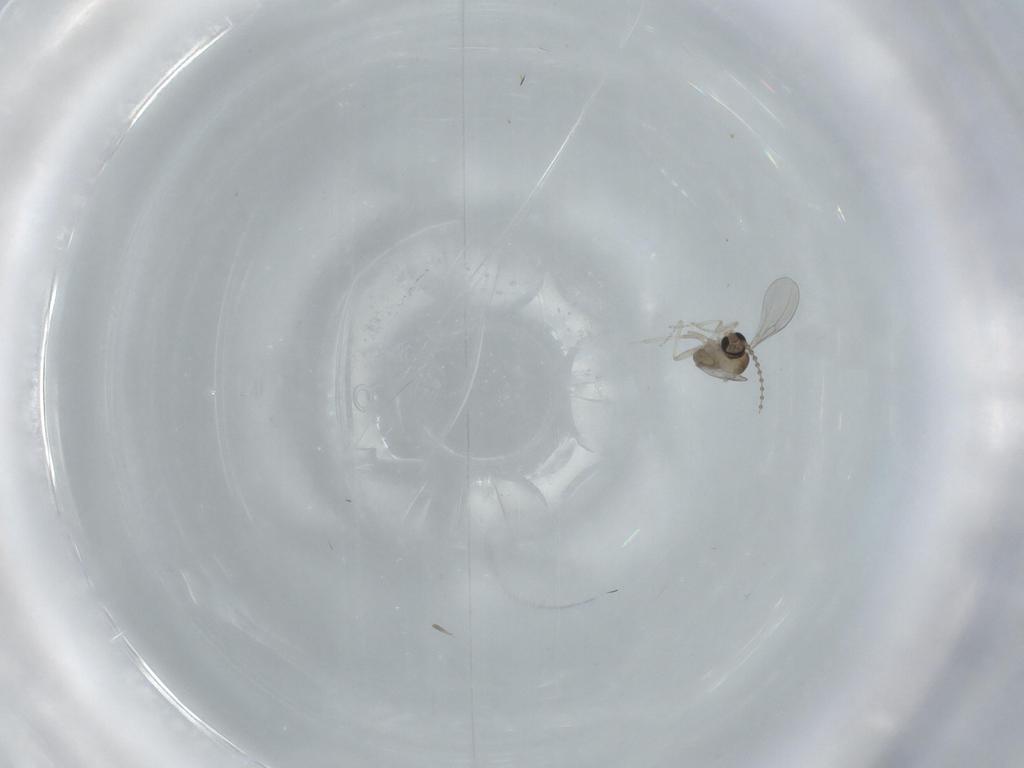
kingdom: Animalia
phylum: Arthropoda
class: Insecta
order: Diptera
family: Cecidomyiidae
